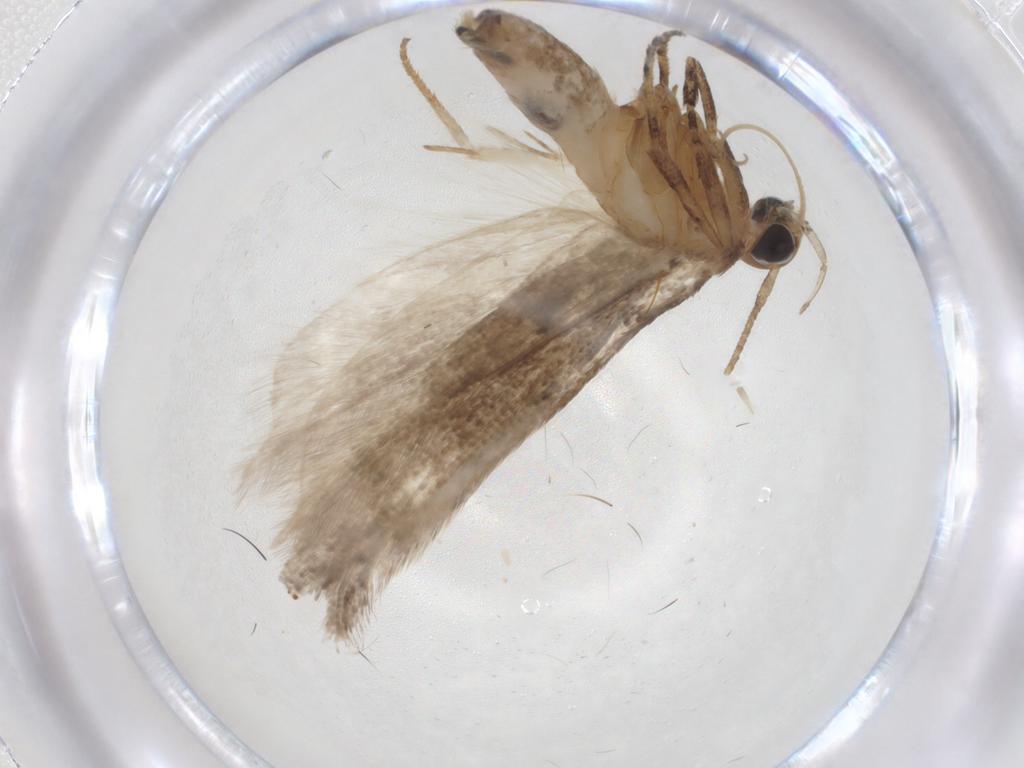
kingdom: Animalia
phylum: Arthropoda
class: Insecta
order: Lepidoptera
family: Gelechiidae
